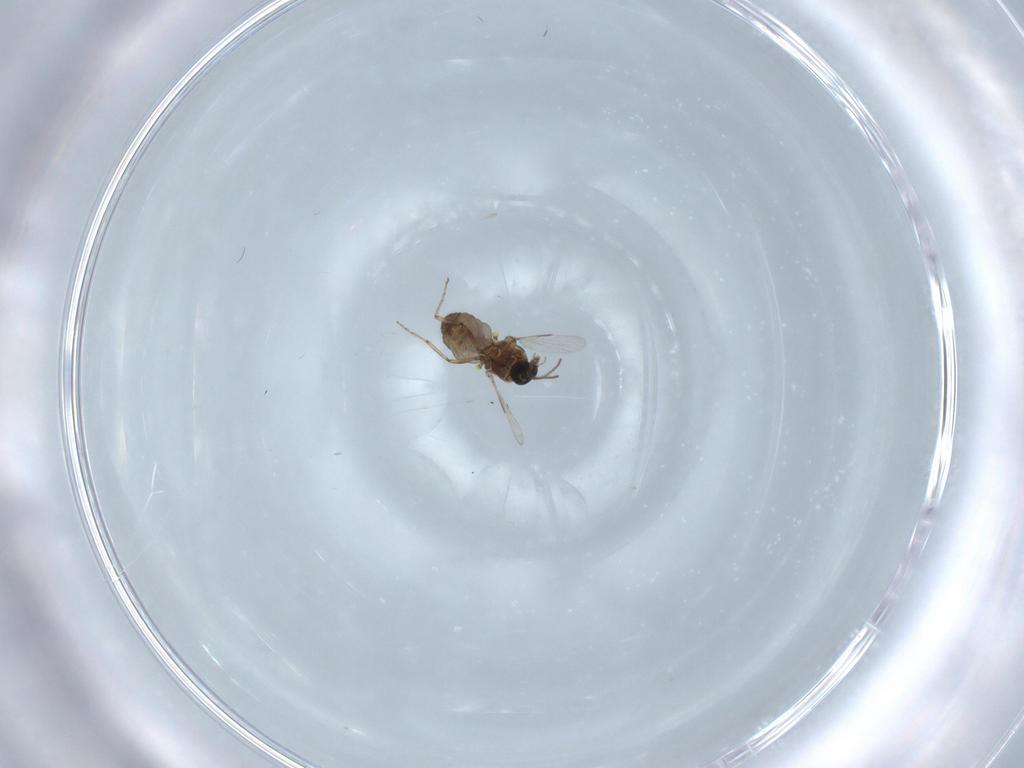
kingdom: Animalia
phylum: Arthropoda
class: Insecta
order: Diptera
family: Ceratopogonidae
